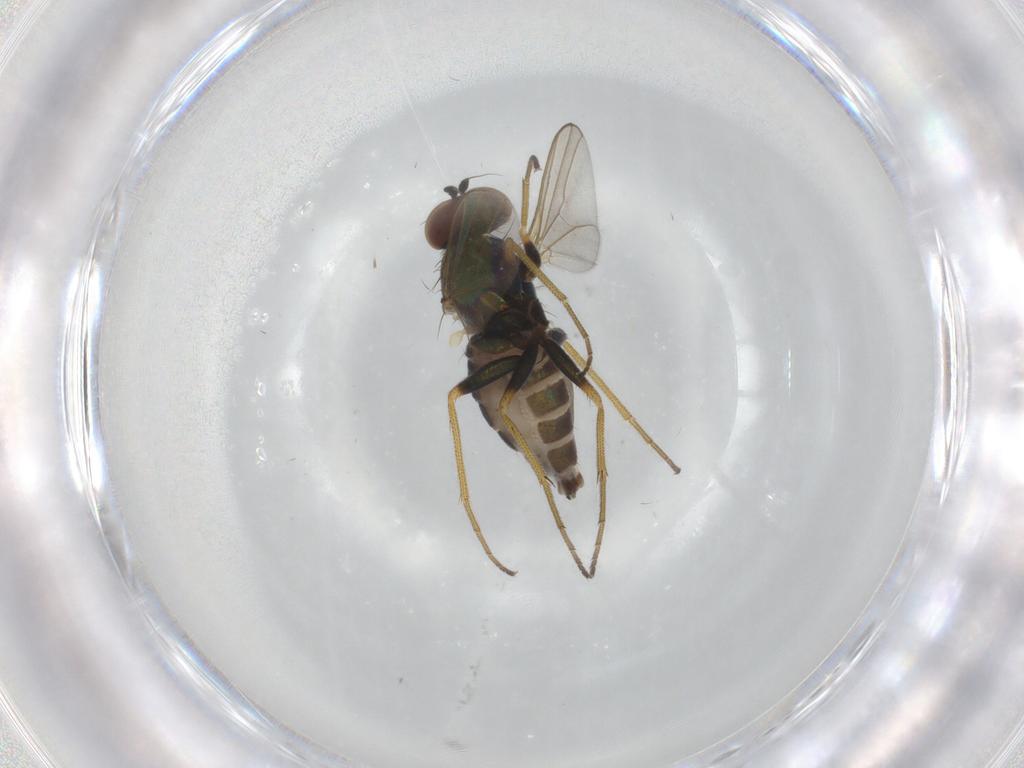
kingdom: Animalia
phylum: Arthropoda
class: Insecta
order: Diptera
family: Dolichopodidae
